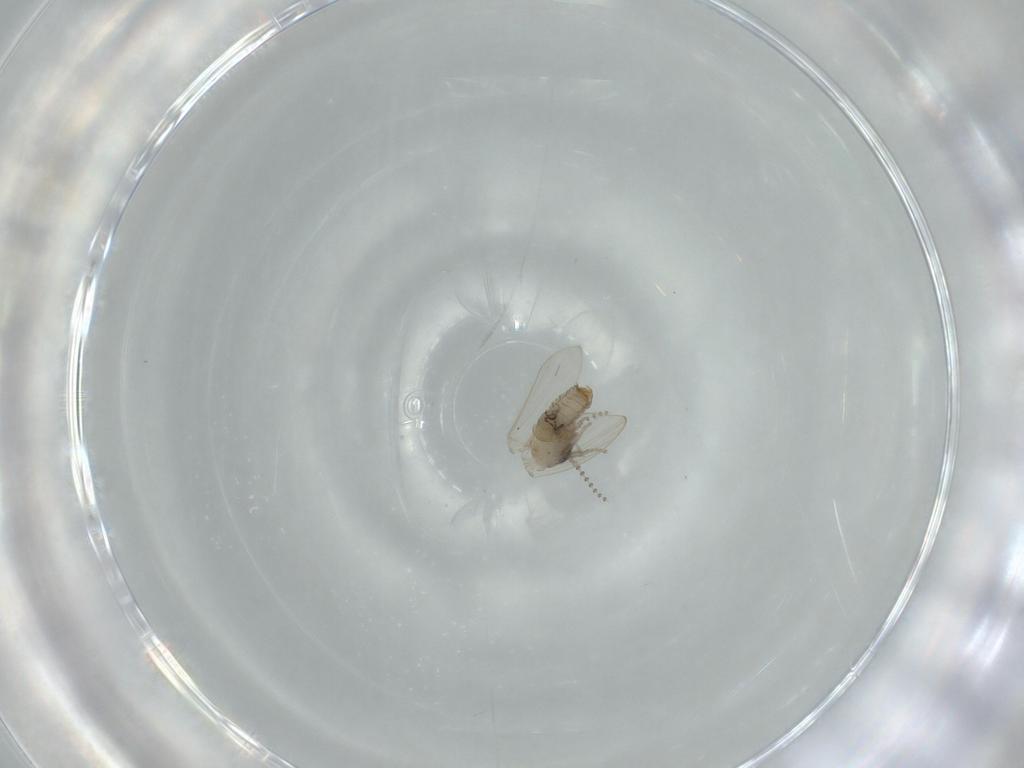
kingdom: Animalia
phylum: Arthropoda
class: Insecta
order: Diptera
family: Psychodidae
